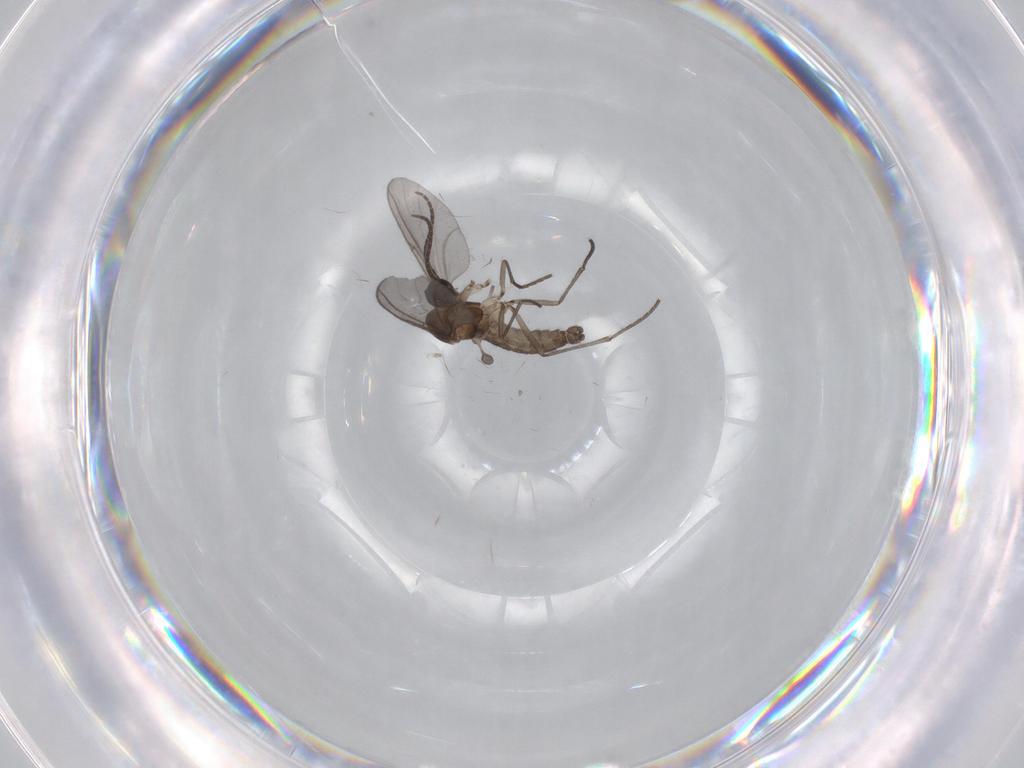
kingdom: Animalia
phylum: Arthropoda
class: Insecta
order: Diptera
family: Sciaridae
